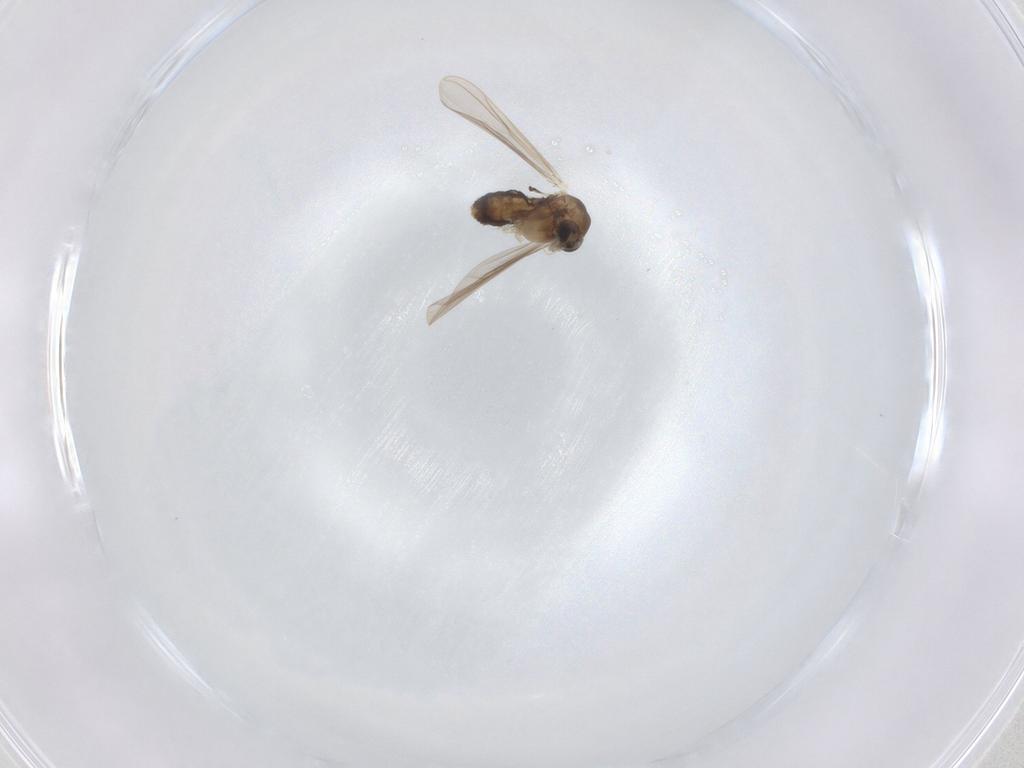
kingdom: Animalia
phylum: Arthropoda
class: Insecta
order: Diptera
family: Chironomidae
